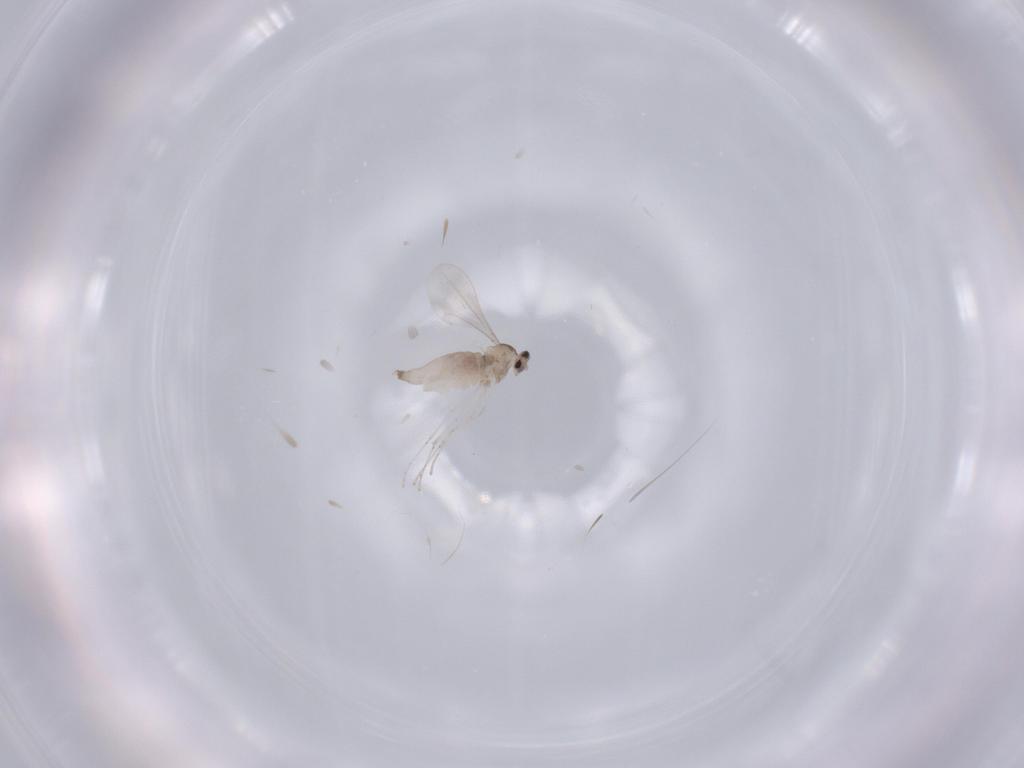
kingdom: Animalia
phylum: Arthropoda
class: Insecta
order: Diptera
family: Cecidomyiidae
